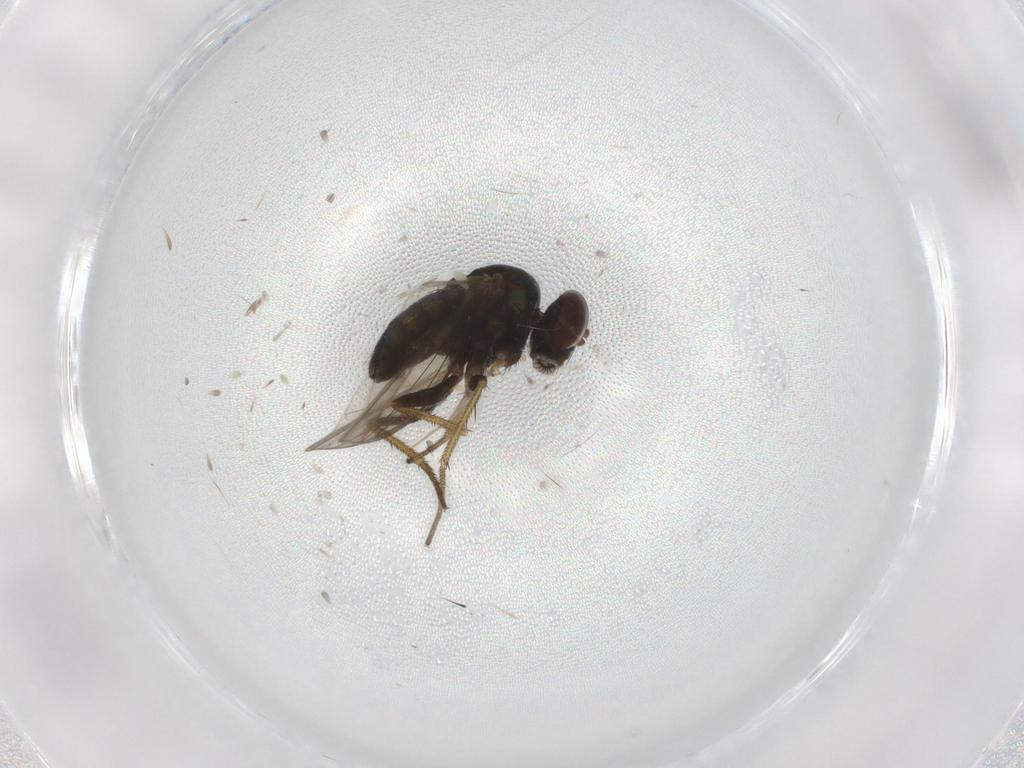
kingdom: Animalia
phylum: Arthropoda
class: Insecta
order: Diptera
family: Dolichopodidae
